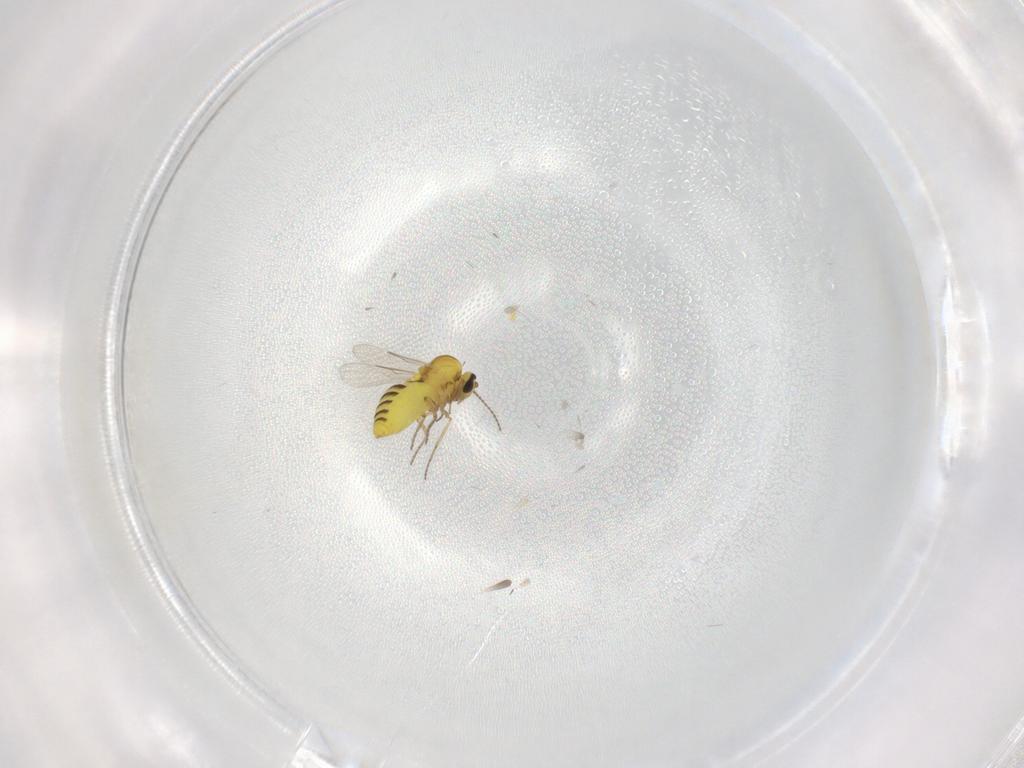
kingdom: Animalia
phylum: Arthropoda
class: Insecta
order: Diptera
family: Ceratopogonidae
